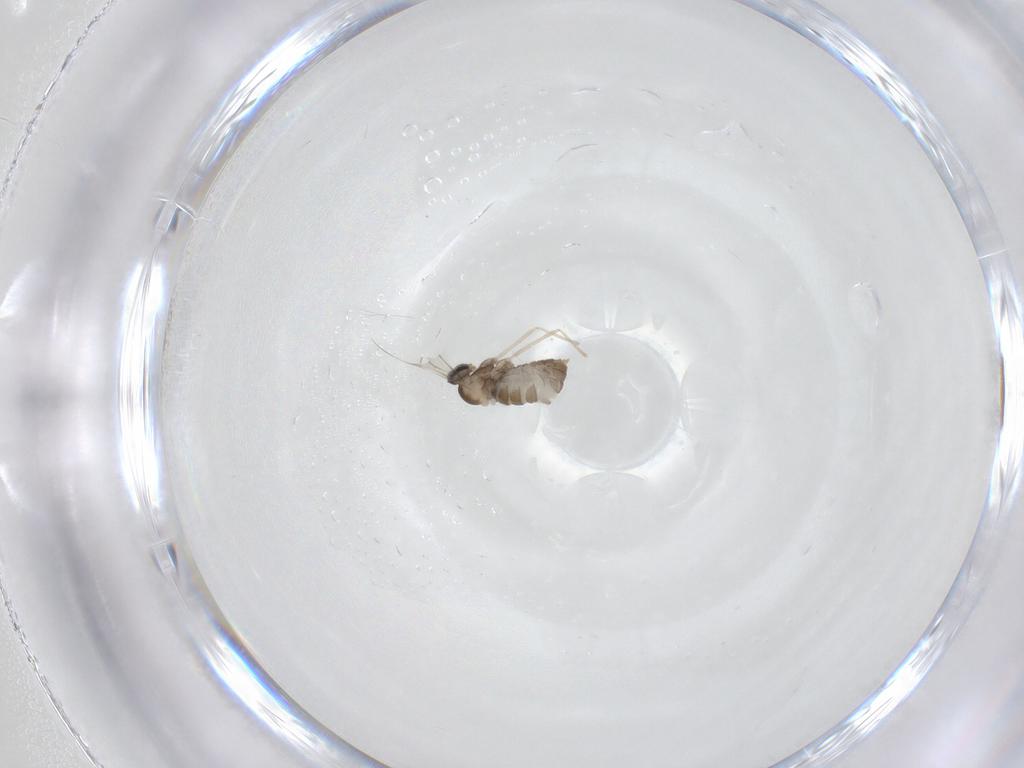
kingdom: Animalia
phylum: Arthropoda
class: Insecta
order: Diptera
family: Cecidomyiidae
